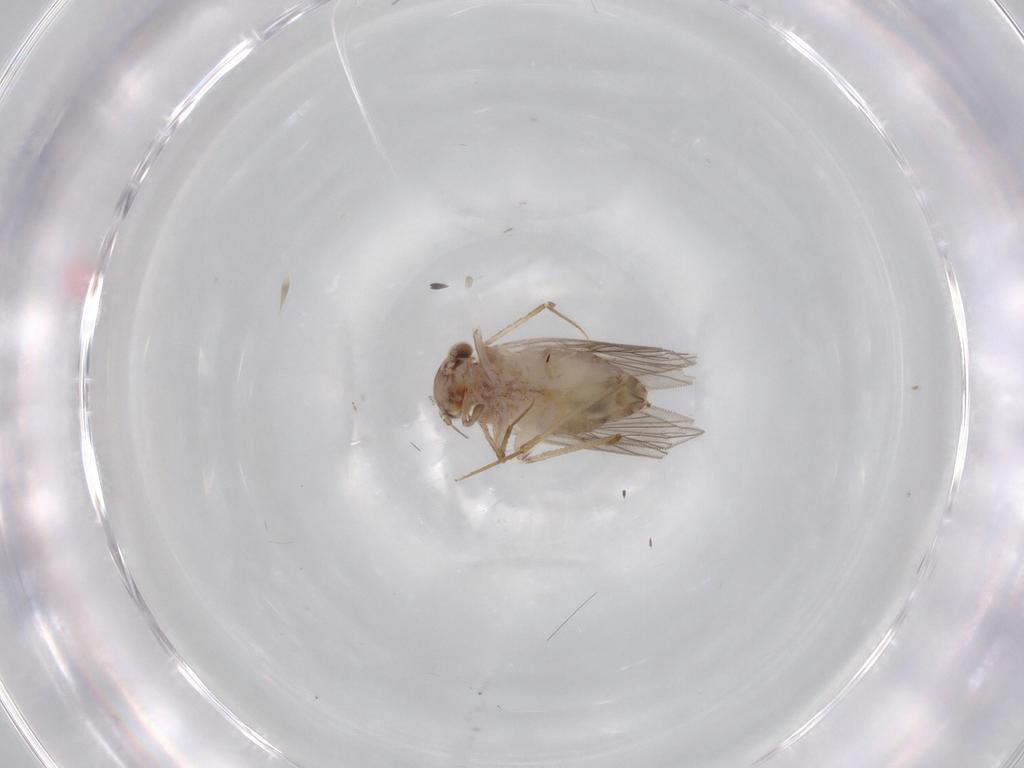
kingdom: Animalia
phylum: Arthropoda
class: Insecta
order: Psocodea
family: Lepidopsocidae
